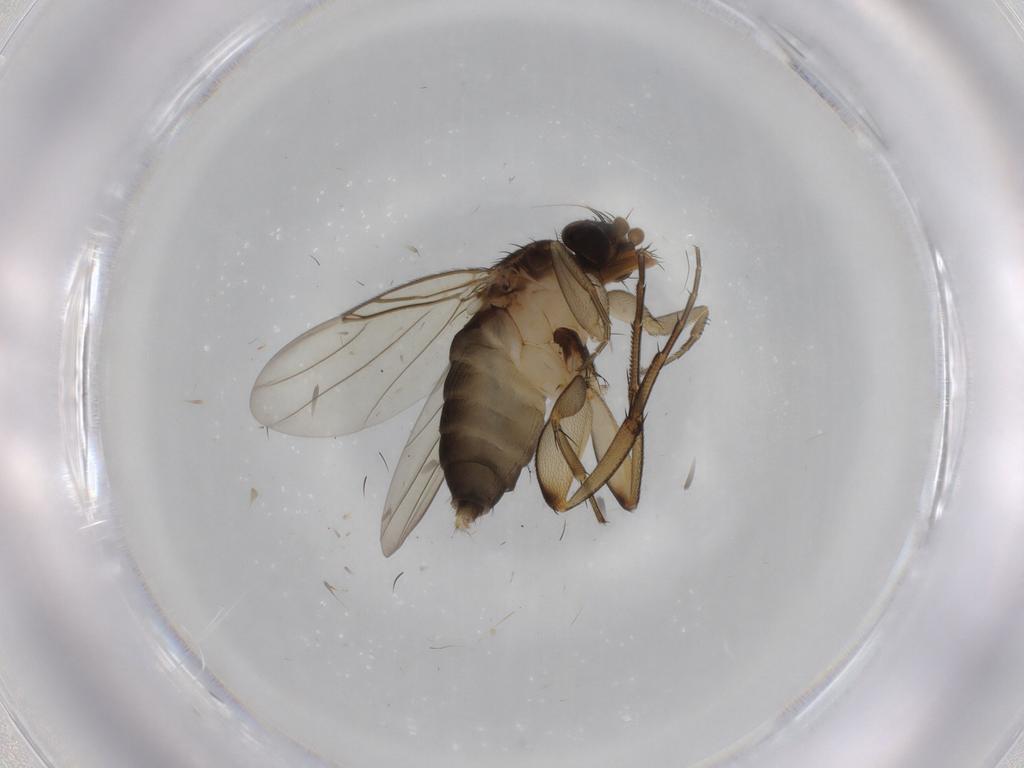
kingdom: Animalia
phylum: Arthropoda
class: Insecta
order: Diptera
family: Phoridae
